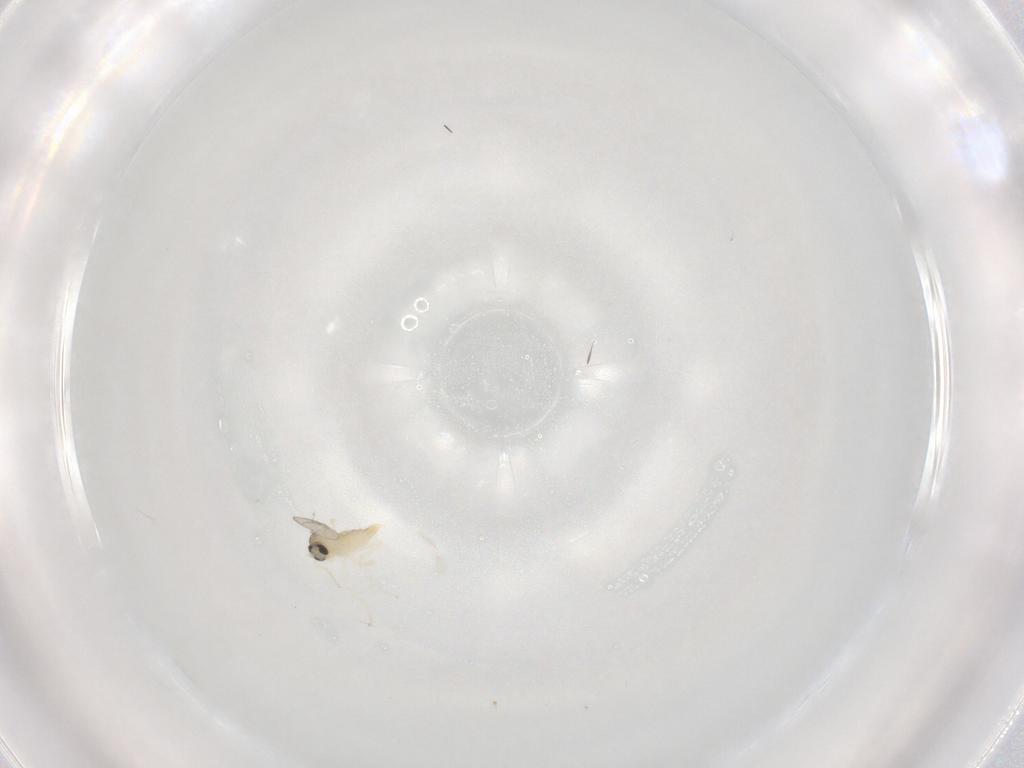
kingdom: Animalia
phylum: Arthropoda
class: Insecta
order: Diptera
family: Cecidomyiidae
